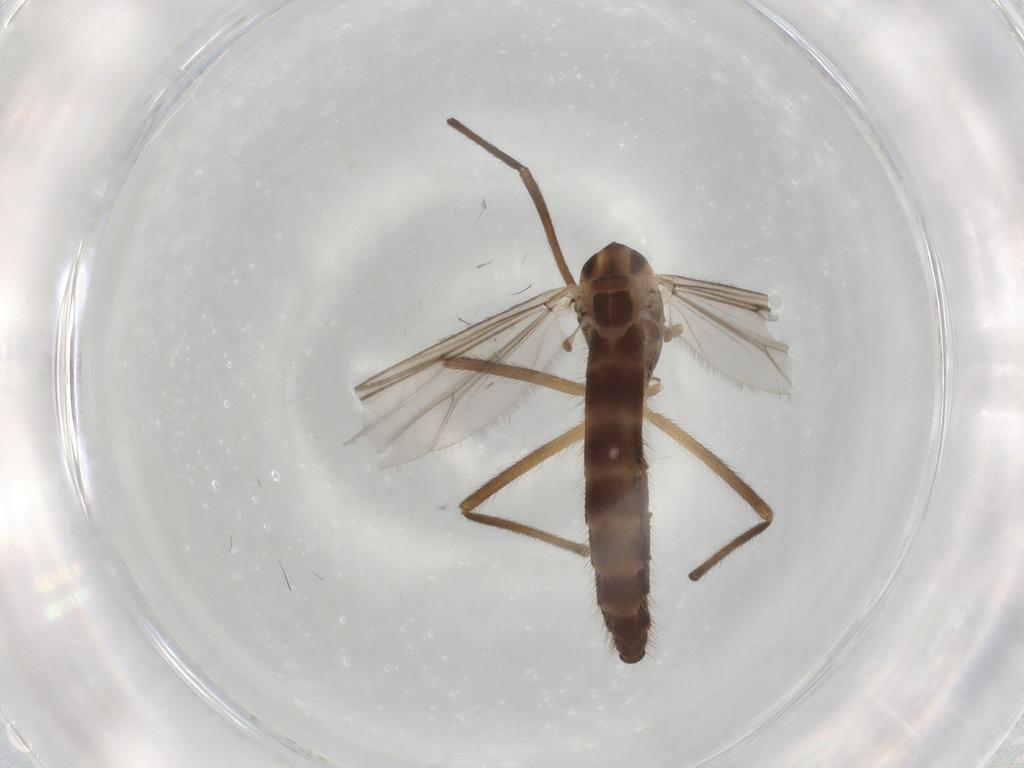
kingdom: Animalia
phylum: Arthropoda
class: Insecta
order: Diptera
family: Chironomidae
